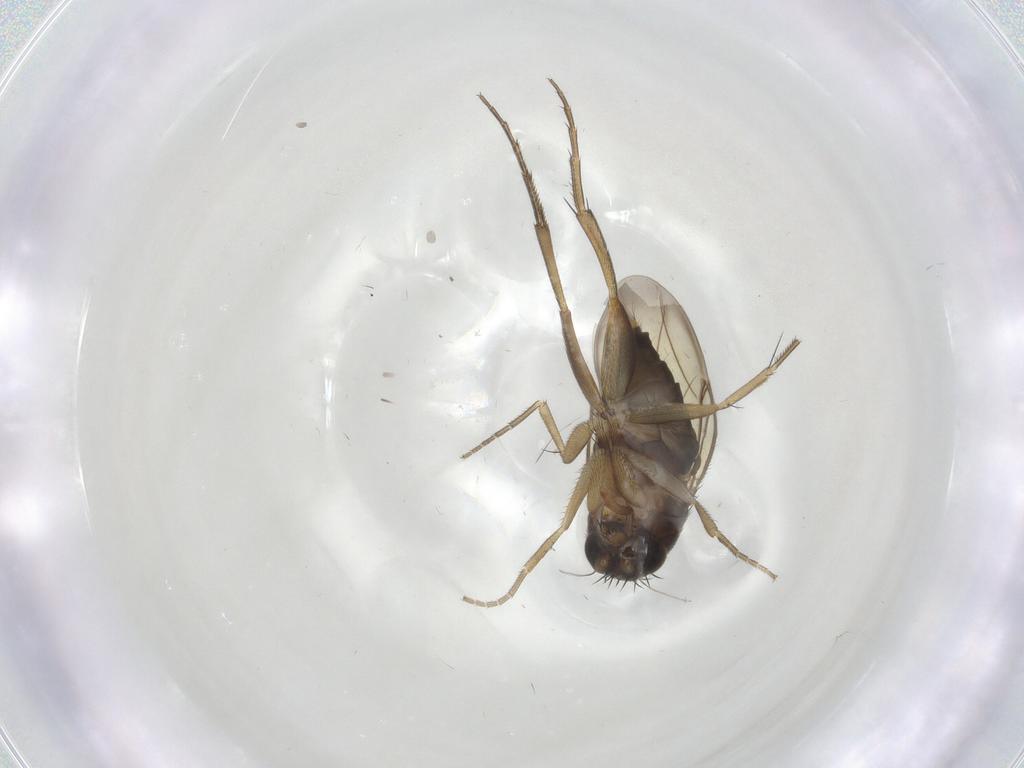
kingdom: Animalia
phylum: Arthropoda
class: Insecta
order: Diptera
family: Phoridae
